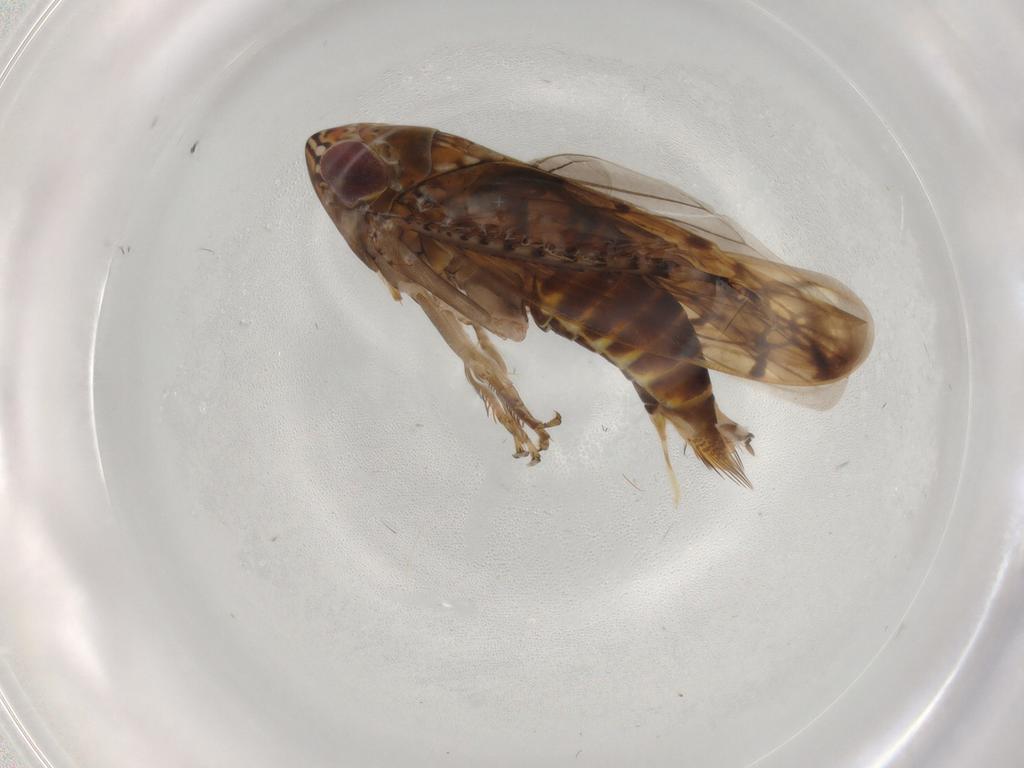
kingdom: Animalia
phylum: Arthropoda
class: Insecta
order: Hemiptera
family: Cicadellidae
